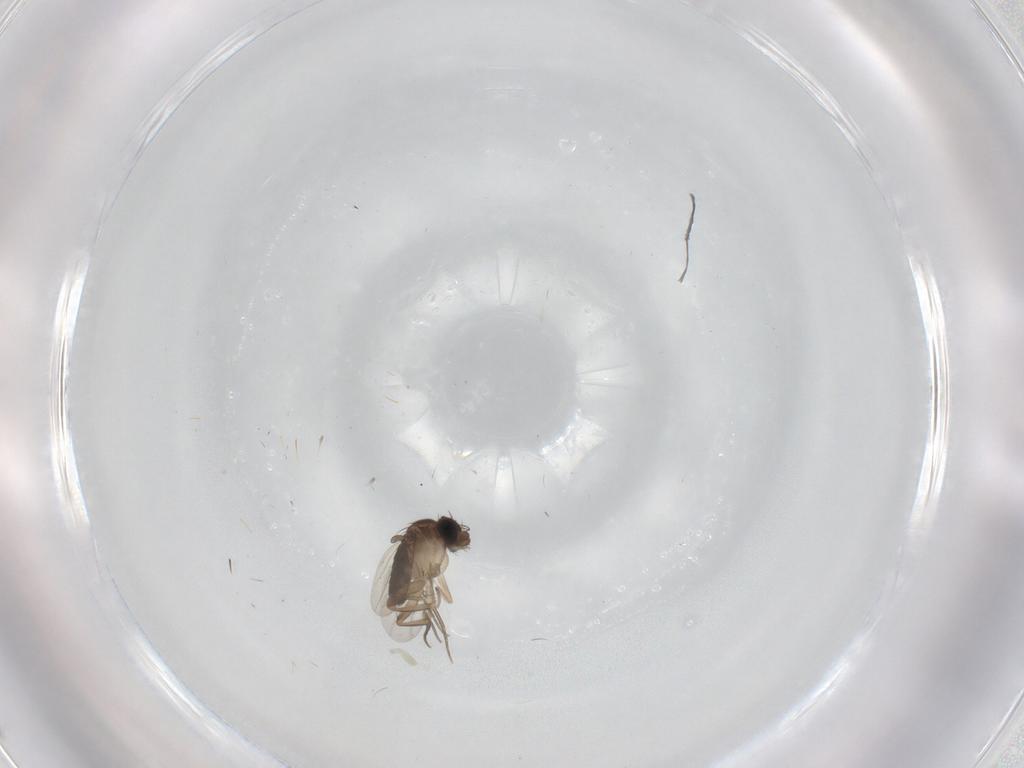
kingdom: Animalia
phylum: Arthropoda
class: Insecta
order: Diptera
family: Phoridae
